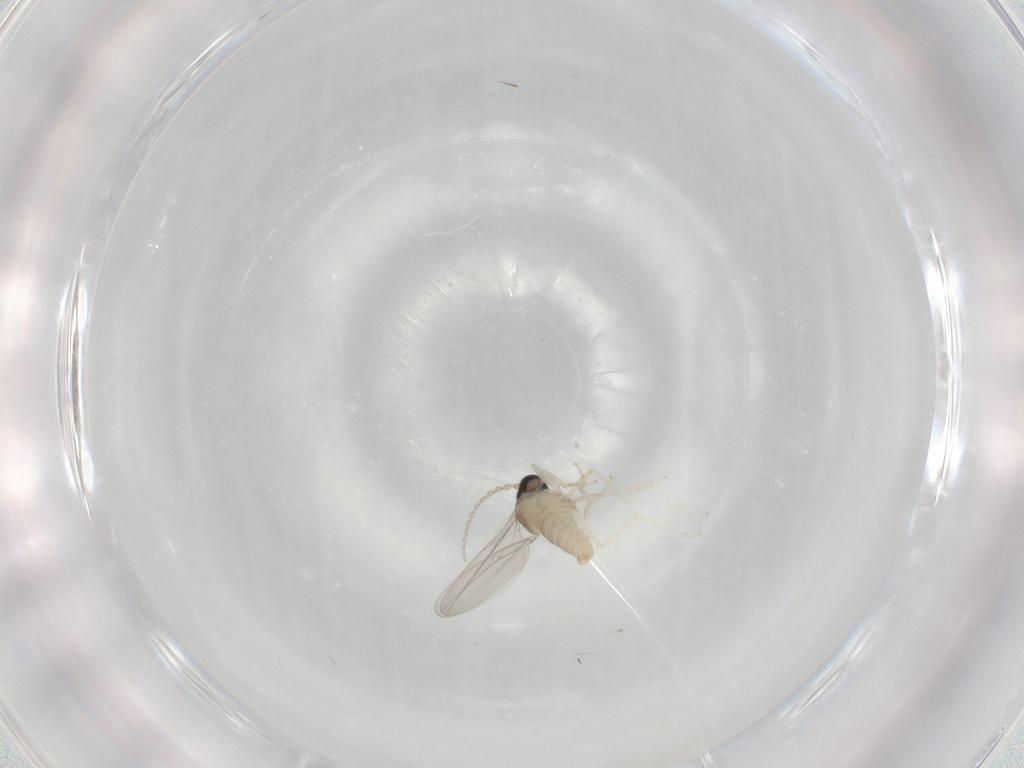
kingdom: Animalia
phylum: Arthropoda
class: Insecta
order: Diptera
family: Cecidomyiidae
